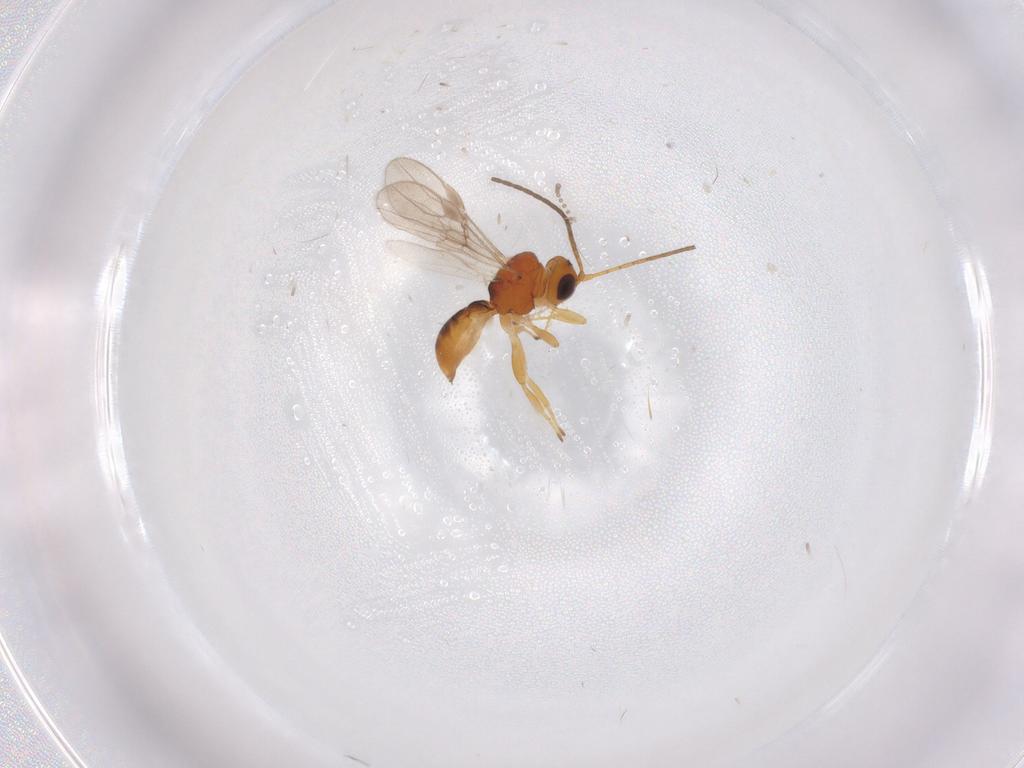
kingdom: Animalia
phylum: Arthropoda
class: Insecta
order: Hymenoptera
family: Braconidae
